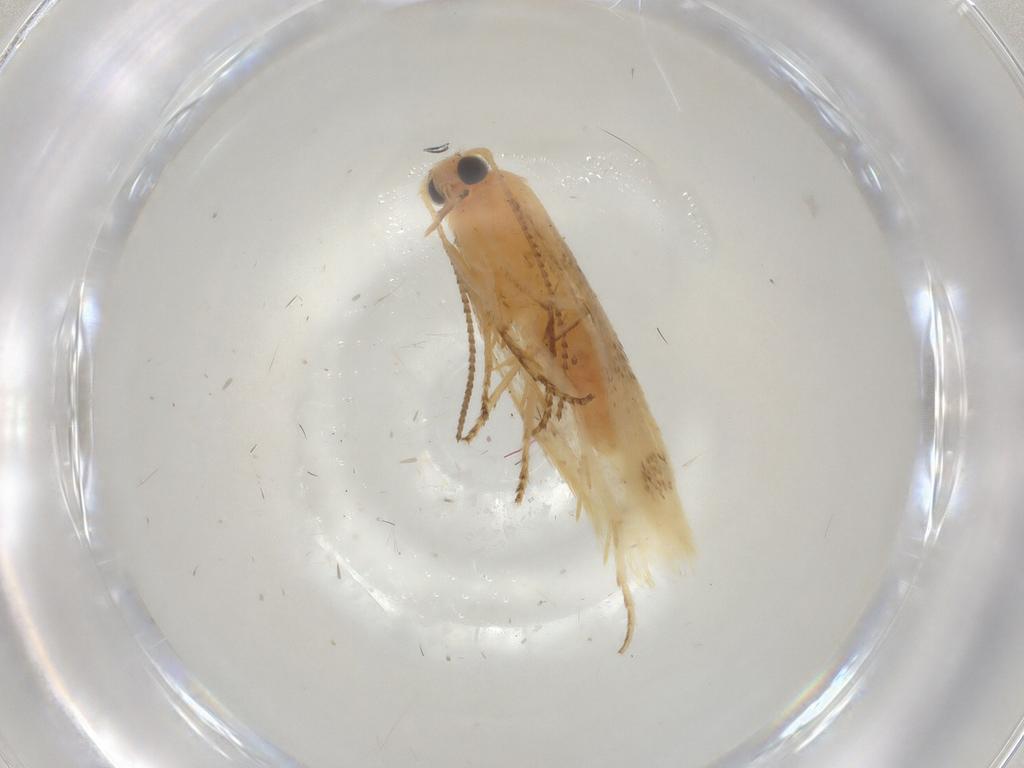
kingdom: Animalia
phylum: Arthropoda
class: Insecta
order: Lepidoptera
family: Argyresthiidae
